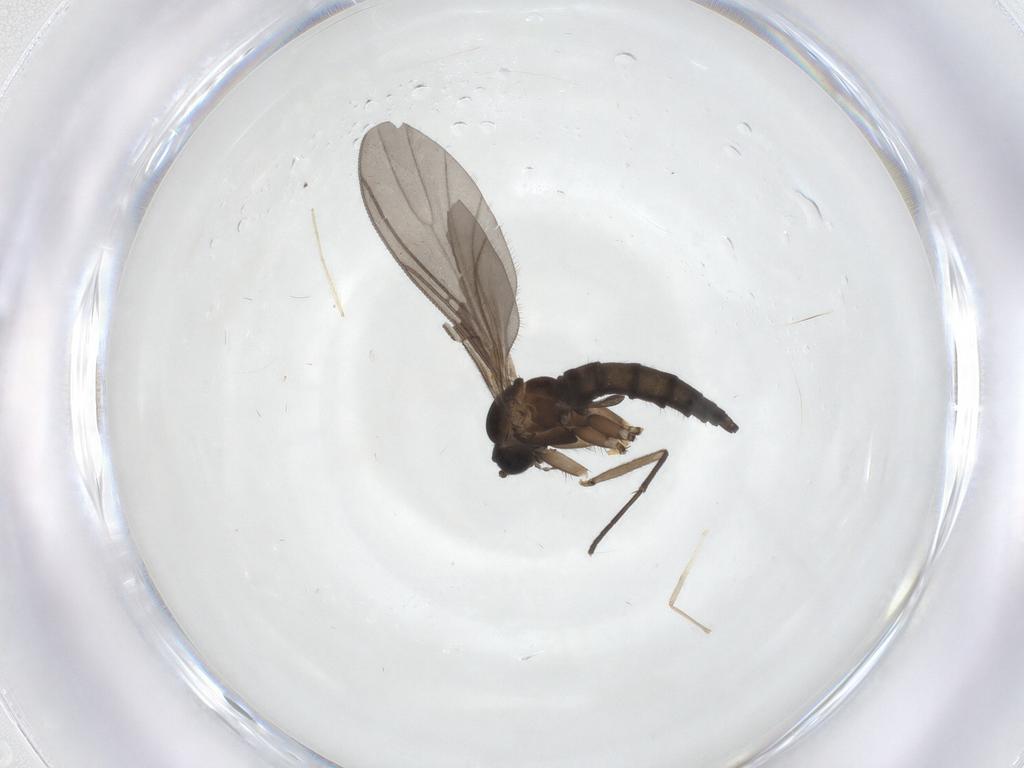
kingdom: Animalia
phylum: Arthropoda
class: Insecta
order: Diptera
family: Sciaridae
